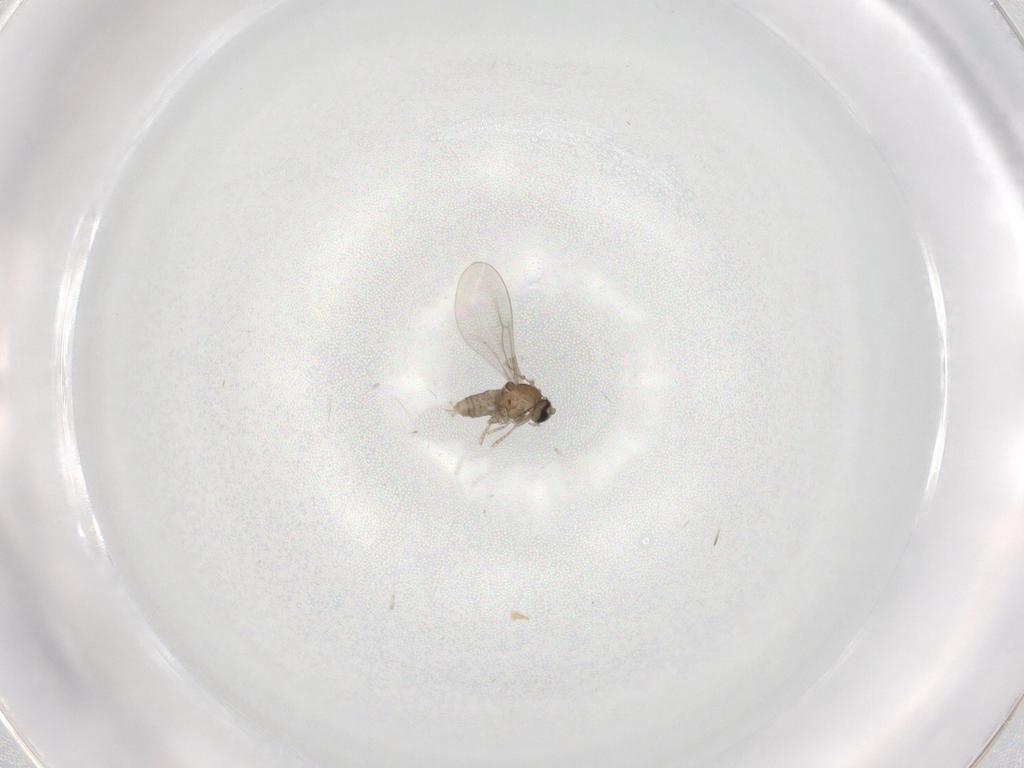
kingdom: Animalia
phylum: Arthropoda
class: Insecta
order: Diptera
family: Cecidomyiidae
